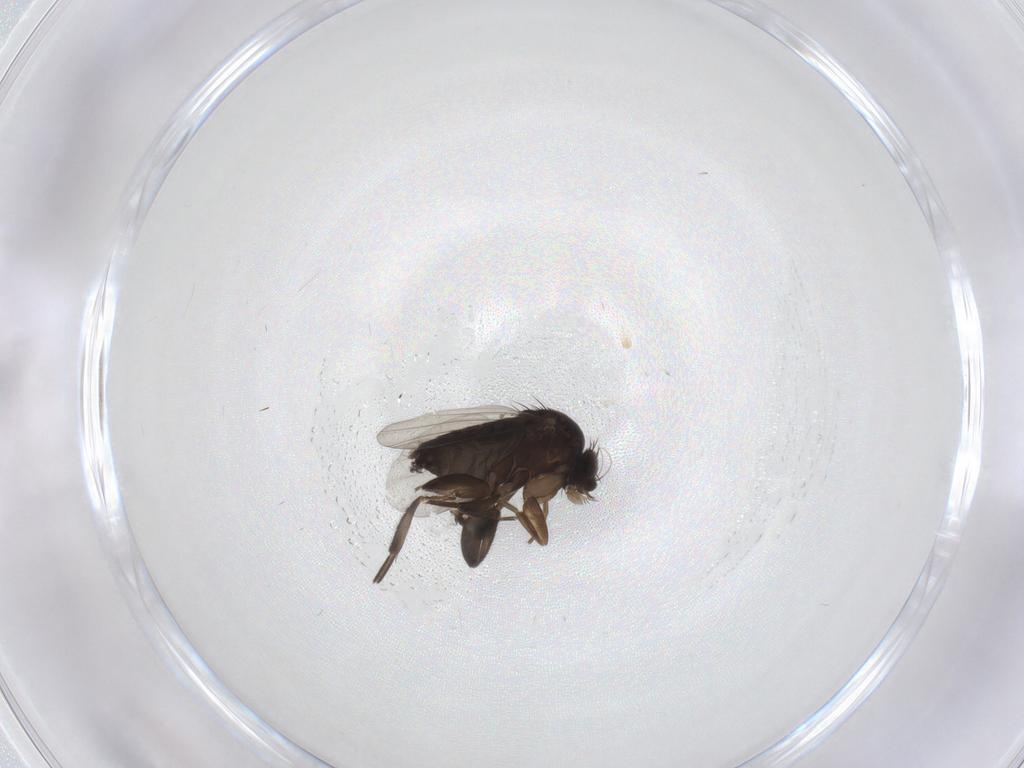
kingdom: Animalia
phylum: Arthropoda
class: Insecta
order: Diptera
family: Phoridae
